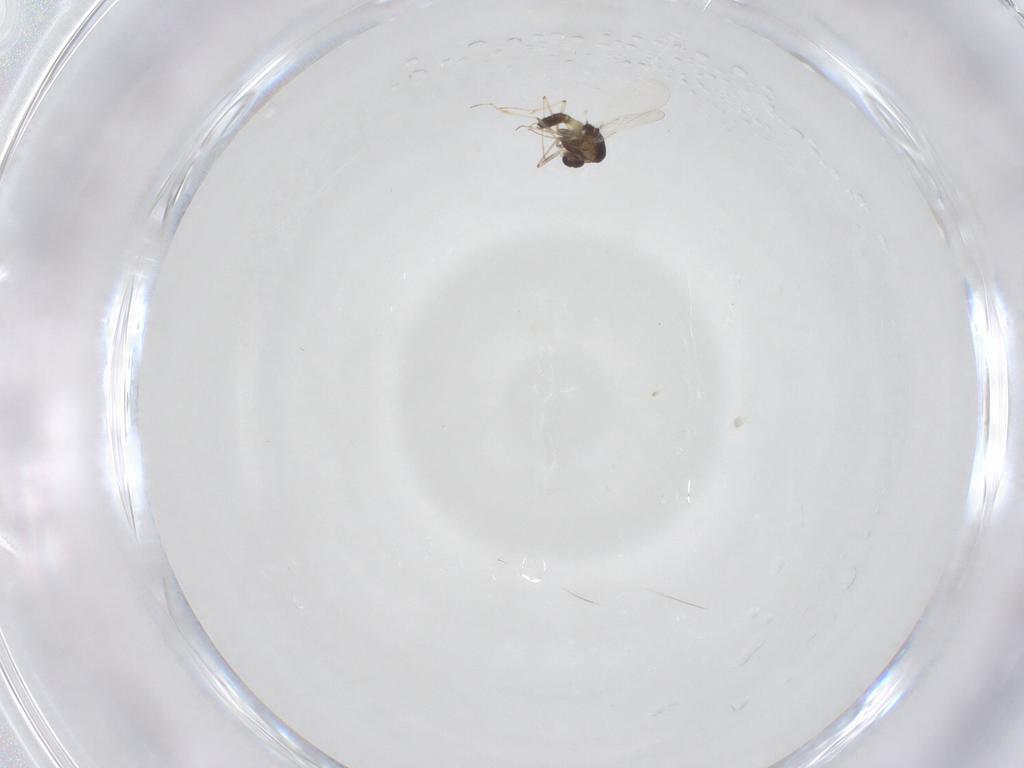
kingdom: Animalia
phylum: Arthropoda
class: Insecta
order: Diptera
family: Chironomidae
